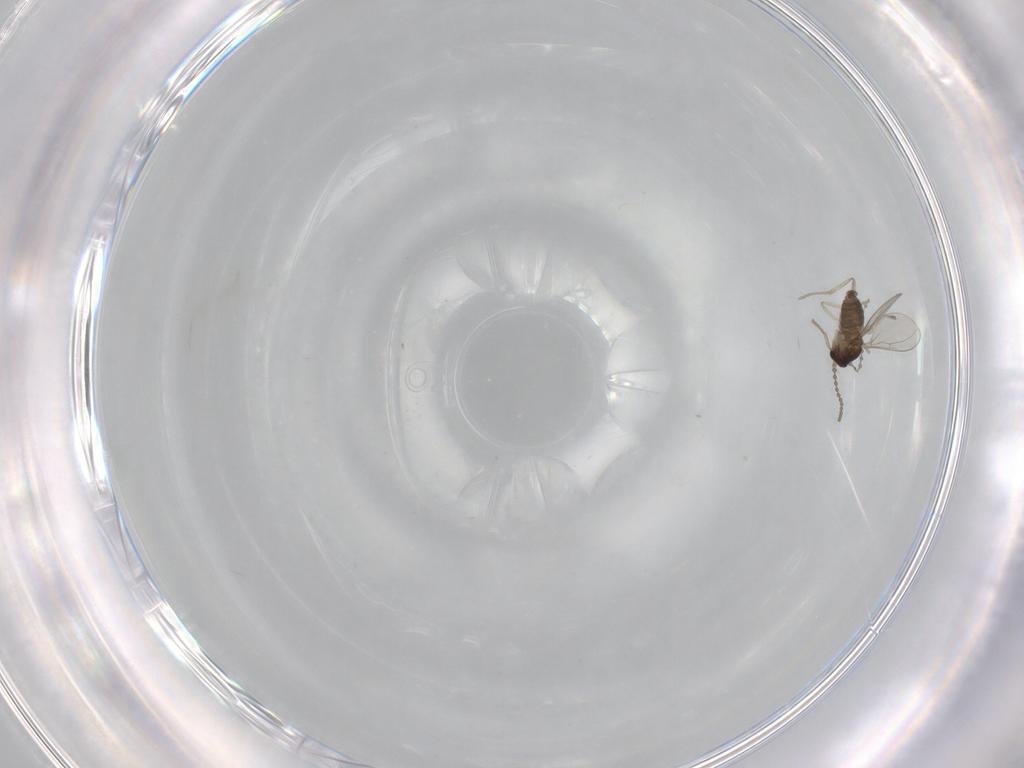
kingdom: Animalia
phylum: Arthropoda
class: Insecta
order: Diptera
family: Cecidomyiidae
